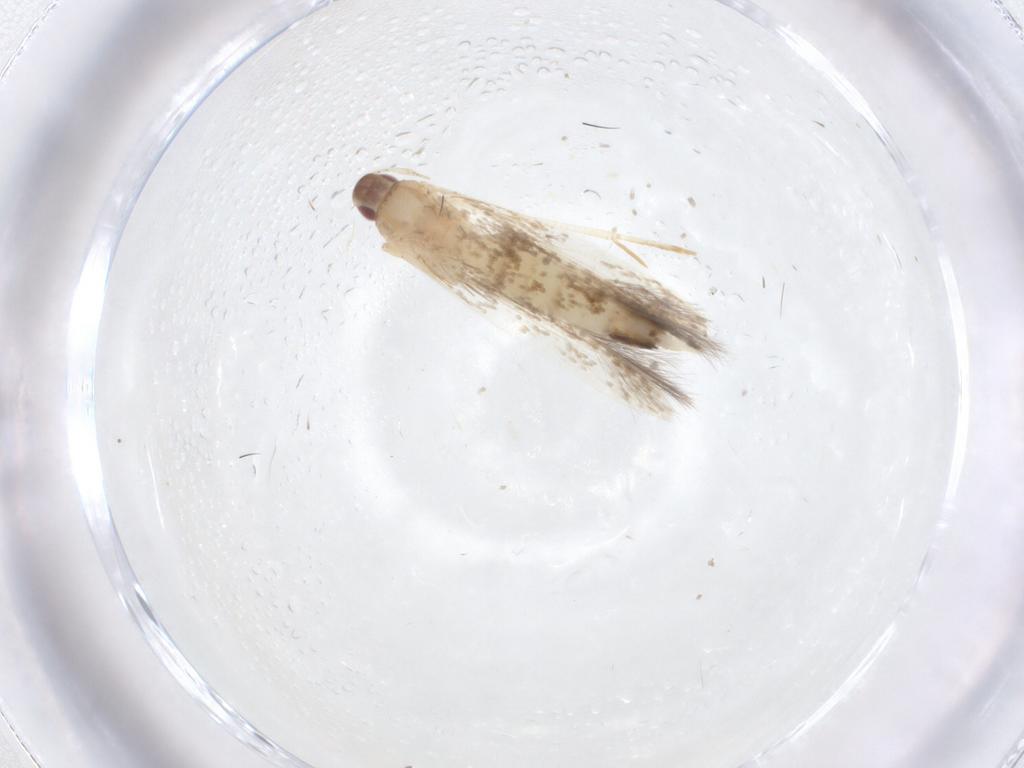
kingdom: Animalia
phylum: Arthropoda
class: Insecta
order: Lepidoptera
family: Cosmopterigidae
